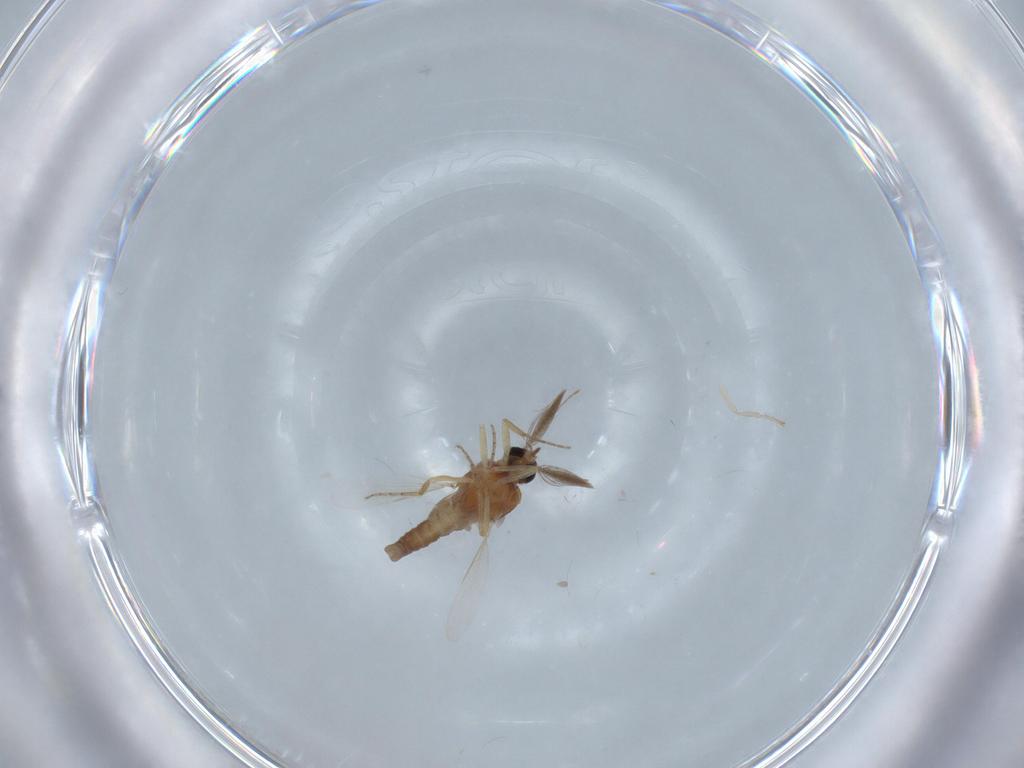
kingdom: Animalia
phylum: Arthropoda
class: Insecta
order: Diptera
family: Ceratopogonidae
